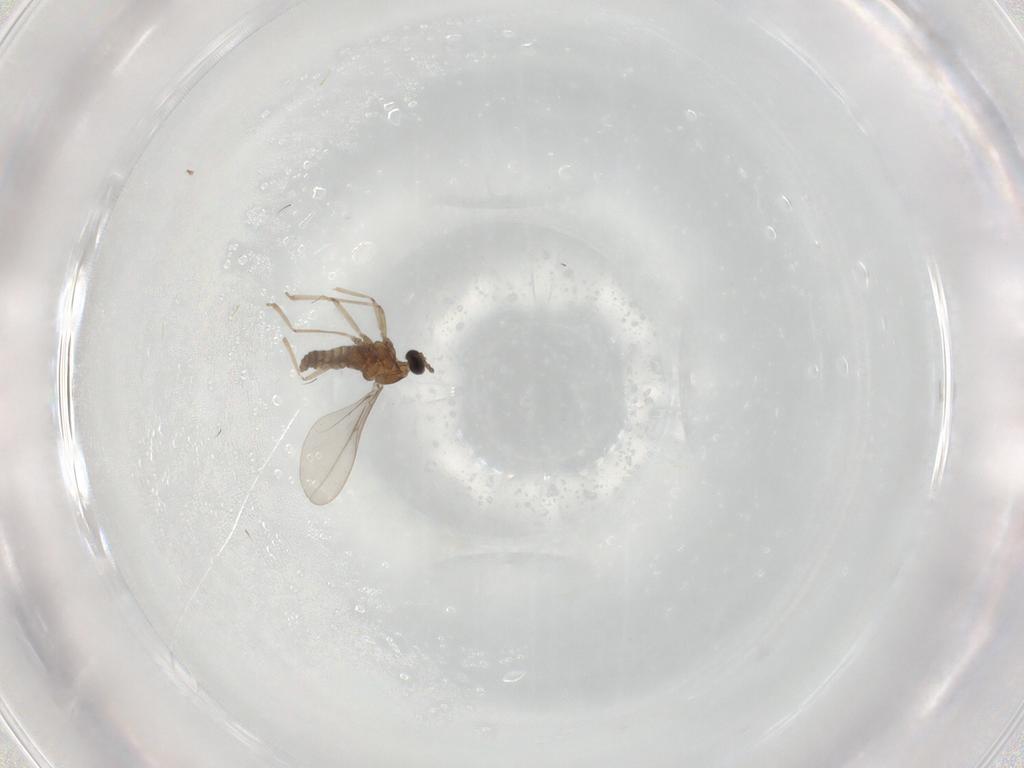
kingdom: Animalia
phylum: Arthropoda
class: Insecta
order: Diptera
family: Cecidomyiidae
